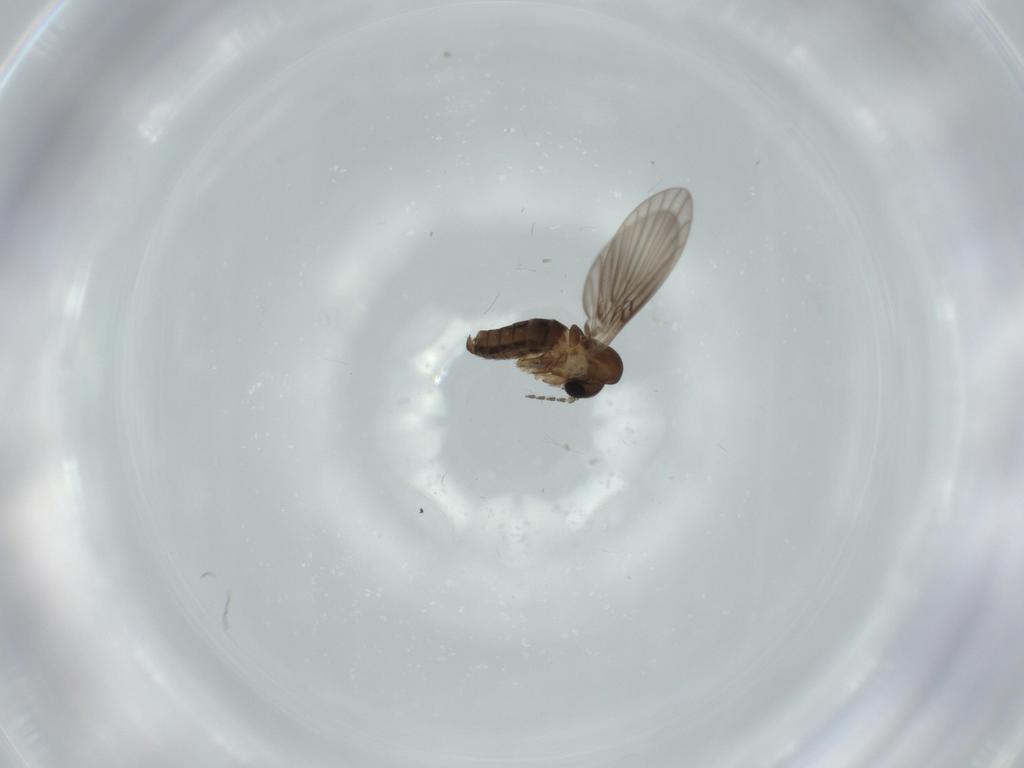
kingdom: Animalia
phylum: Arthropoda
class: Insecta
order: Diptera
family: Psychodidae
